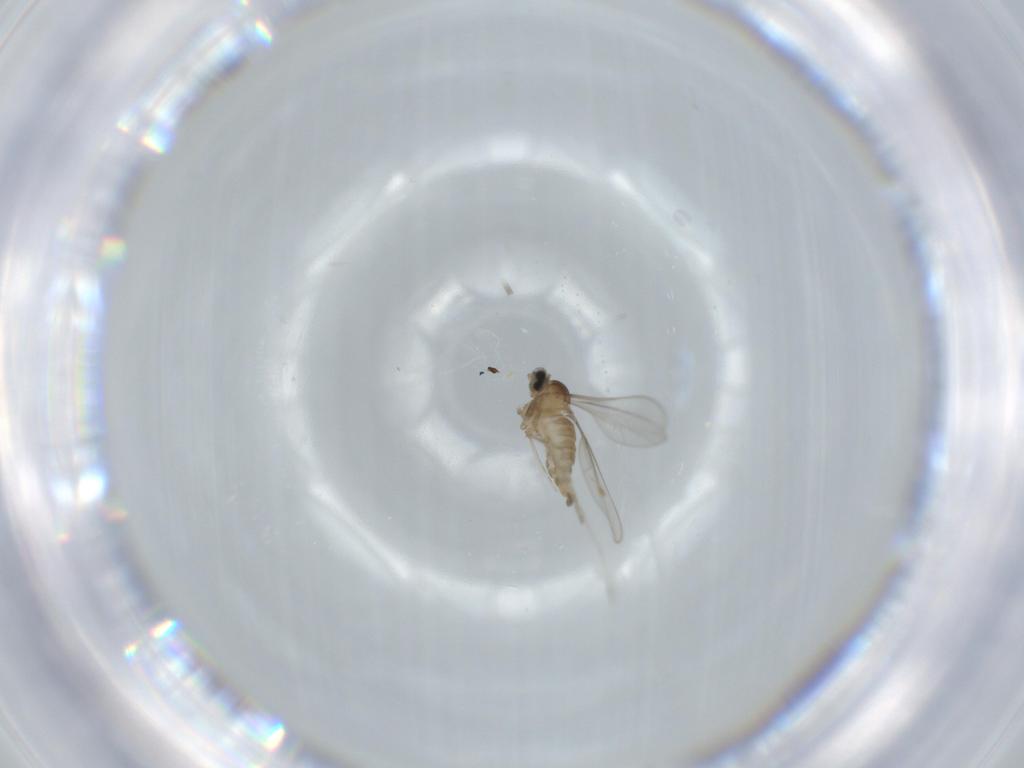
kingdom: Animalia
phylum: Arthropoda
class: Insecta
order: Diptera
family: Cecidomyiidae
